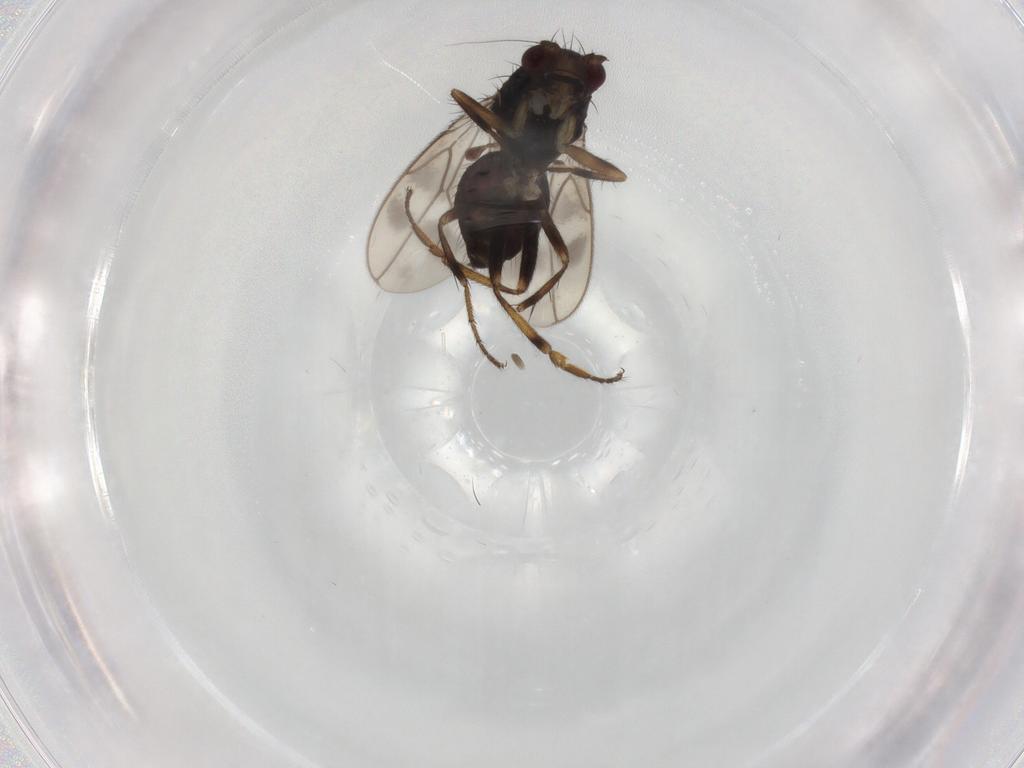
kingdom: Animalia
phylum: Arthropoda
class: Insecta
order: Diptera
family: Sphaeroceridae
